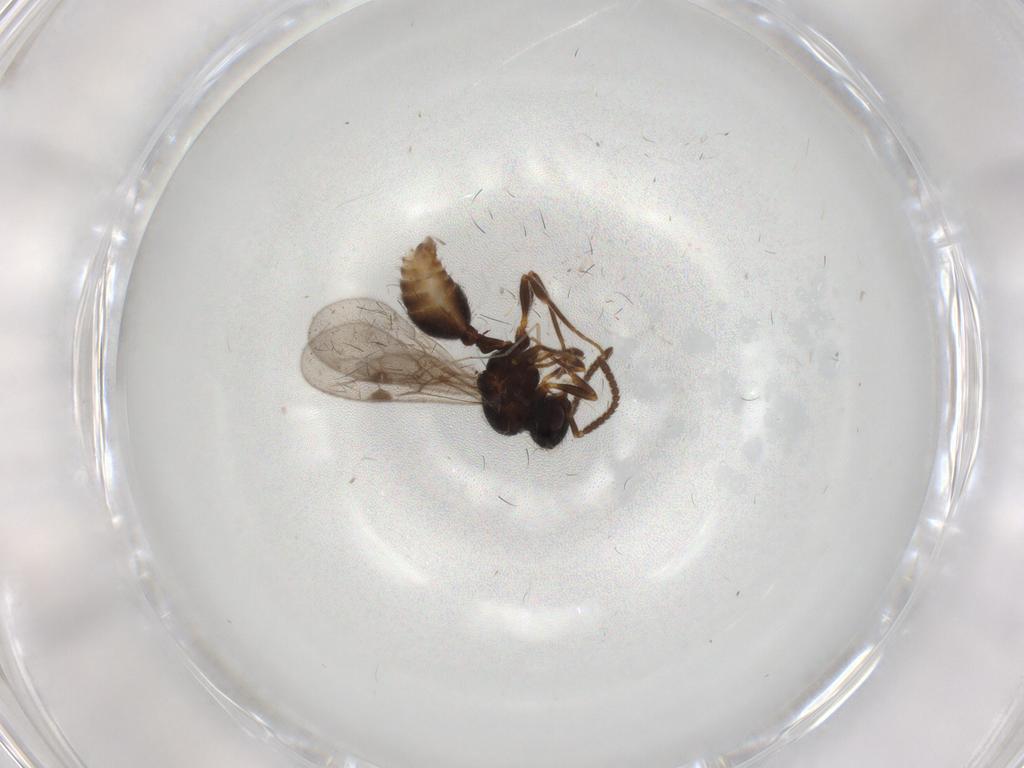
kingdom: Animalia
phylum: Arthropoda
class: Insecta
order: Hymenoptera
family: Formicidae
